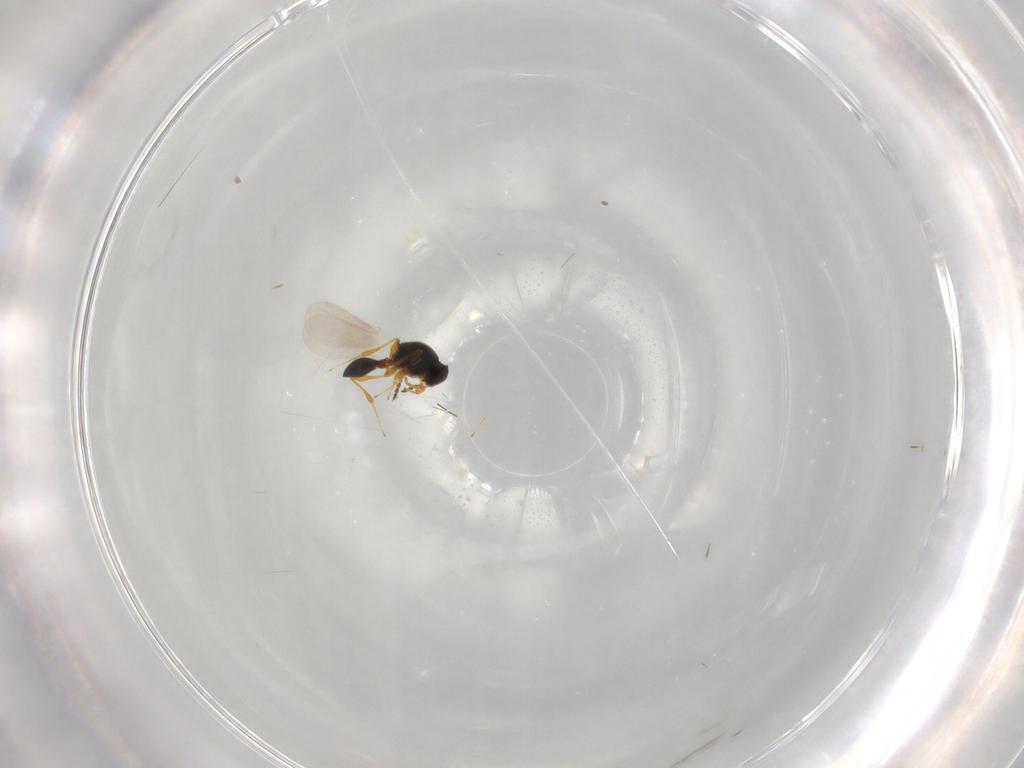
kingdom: Animalia
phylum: Arthropoda
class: Insecta
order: Hymenoptera
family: Platygastridae
